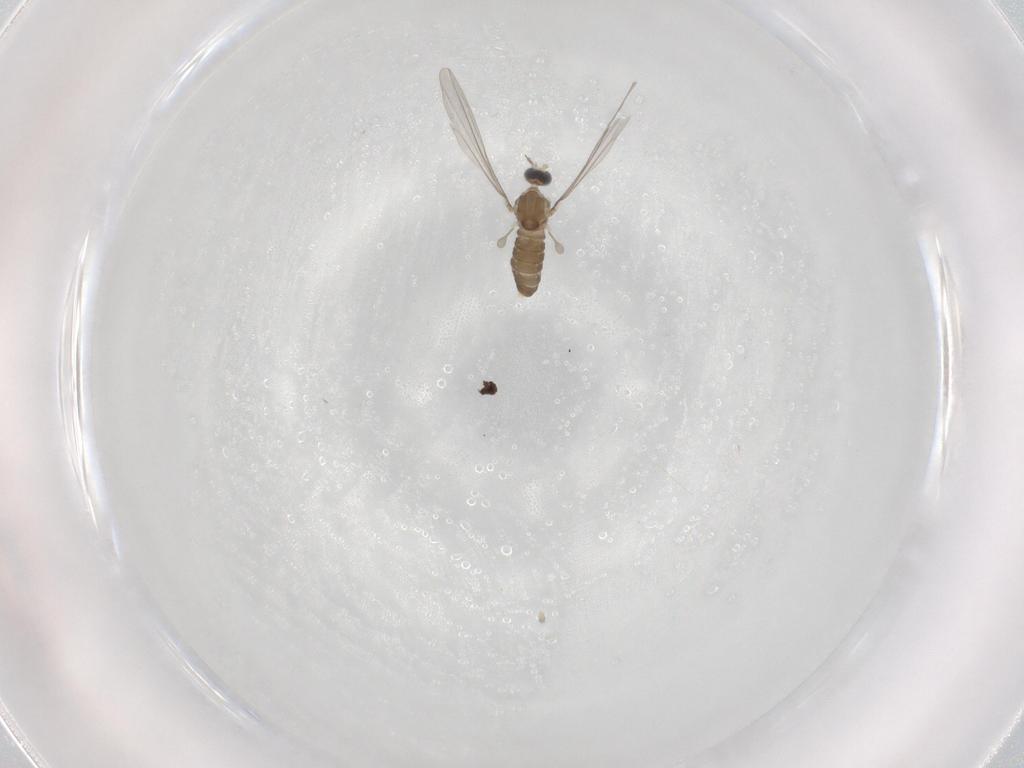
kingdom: Animalia
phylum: Arthropoda
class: Insecta
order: Diptera
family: Cecidomyiidae
